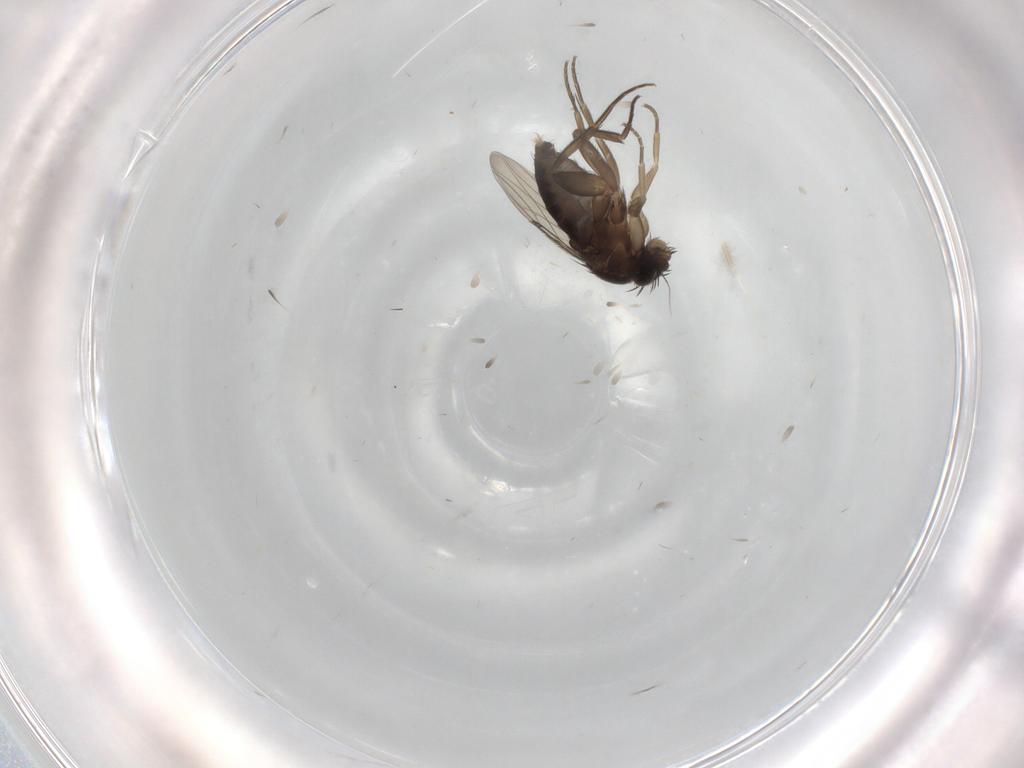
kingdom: Animalia
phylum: Arthropoda
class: Insecta
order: Diptera
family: Phoridae
